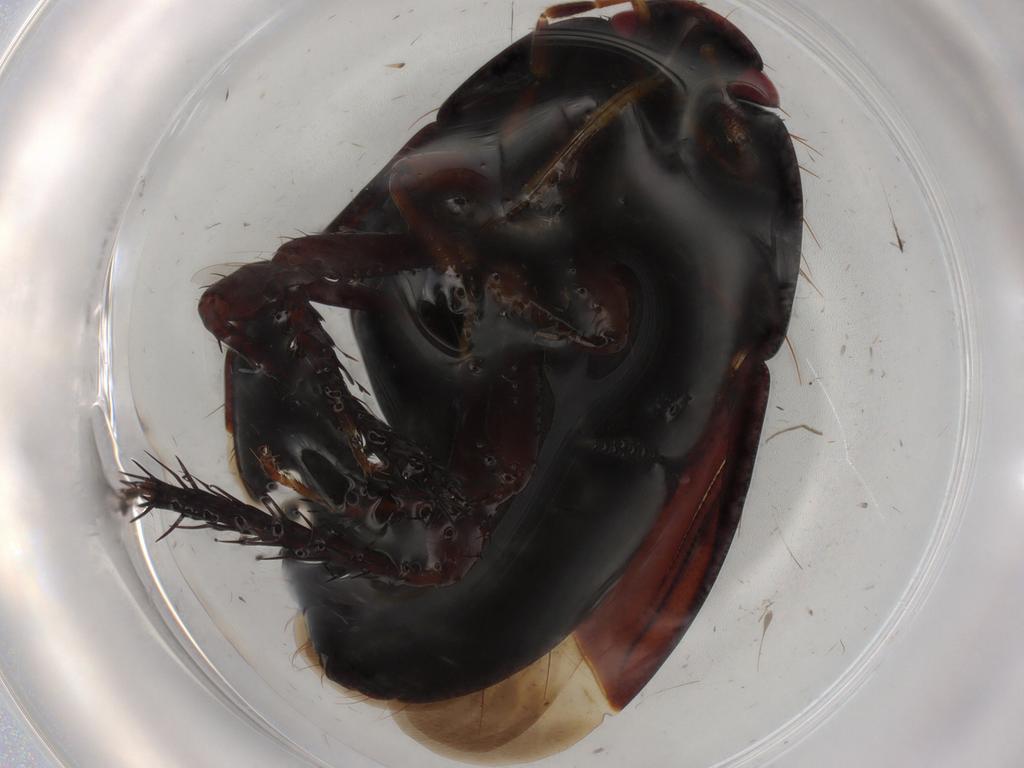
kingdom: Animalia
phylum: Arthropoda
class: Insecta
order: Hemiptera
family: Cydnidae
